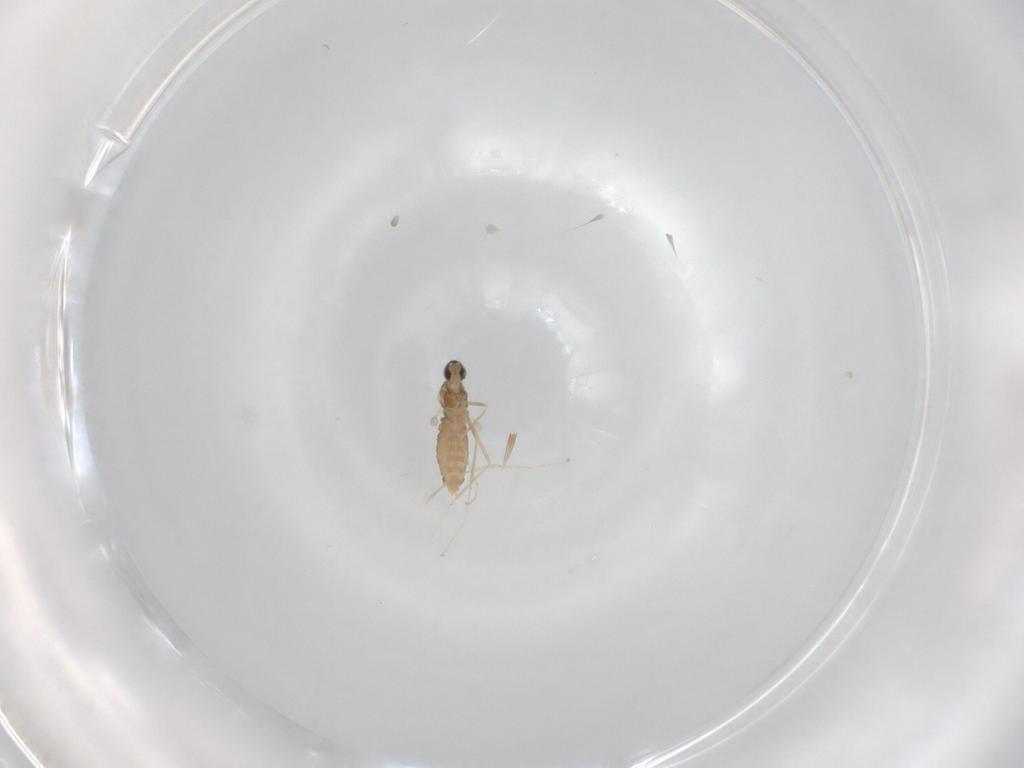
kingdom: Animalia
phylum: Arthropoda
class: Insecta
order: Diptera
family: Cecidomyiidae
